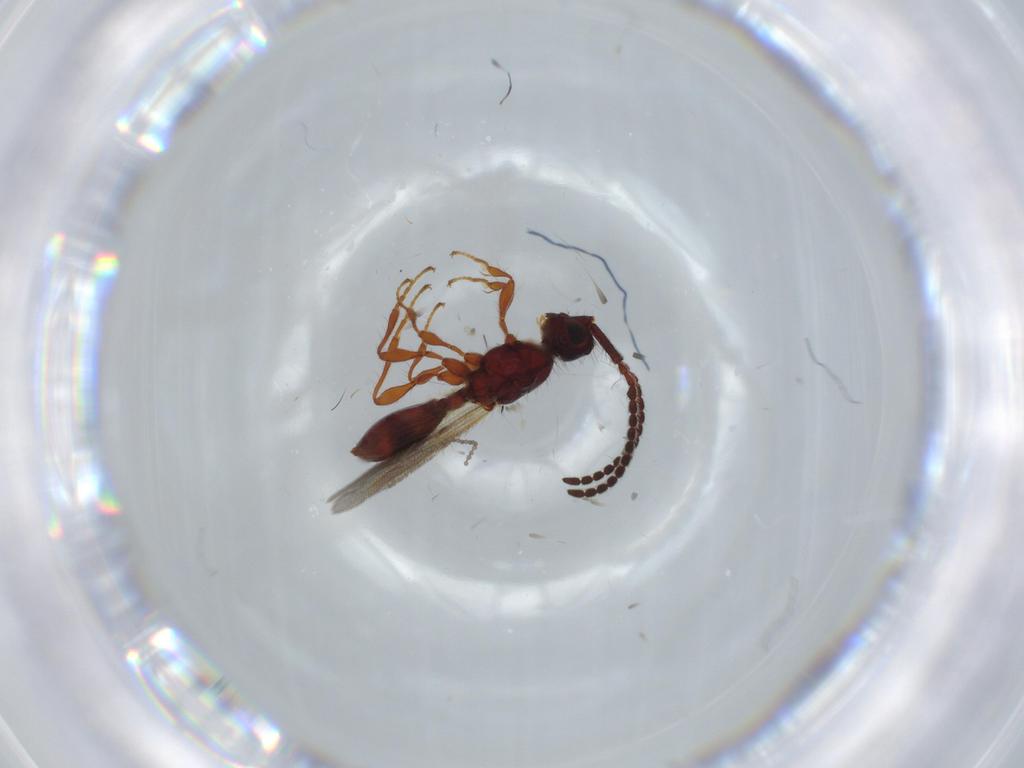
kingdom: Animalia
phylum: Arthropoda
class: Insecta
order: Hymenoptera
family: Diapriidae
